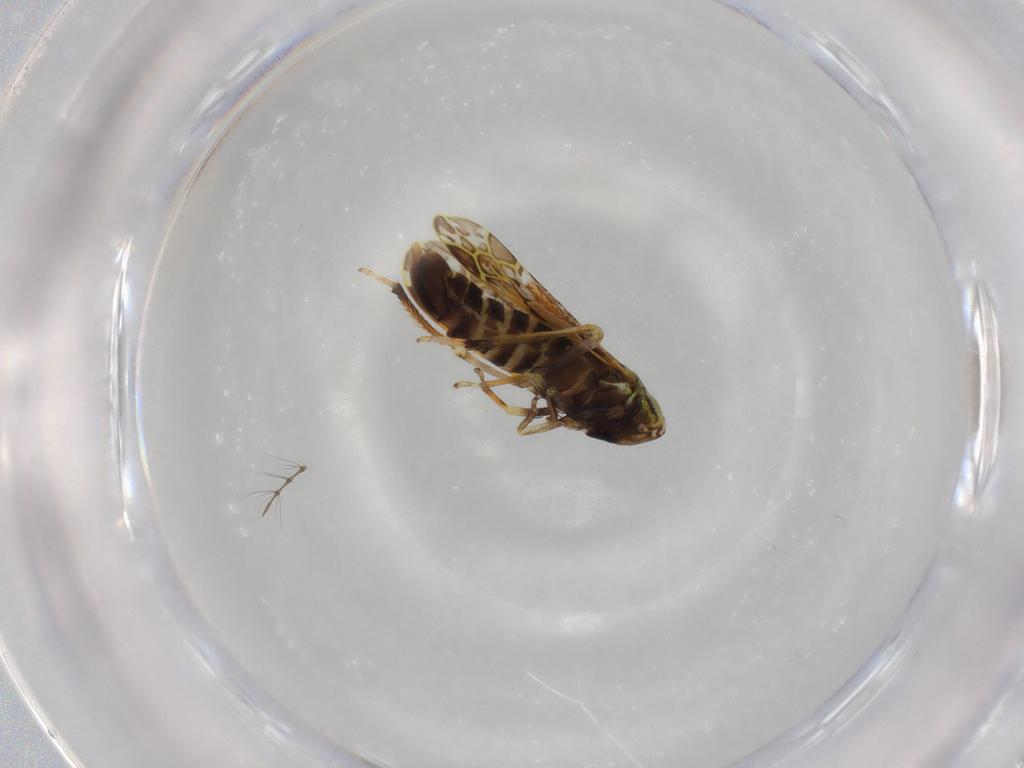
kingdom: Animalia
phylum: Arthropoda
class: Insecta
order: Hemiptera
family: Cicadellidae
